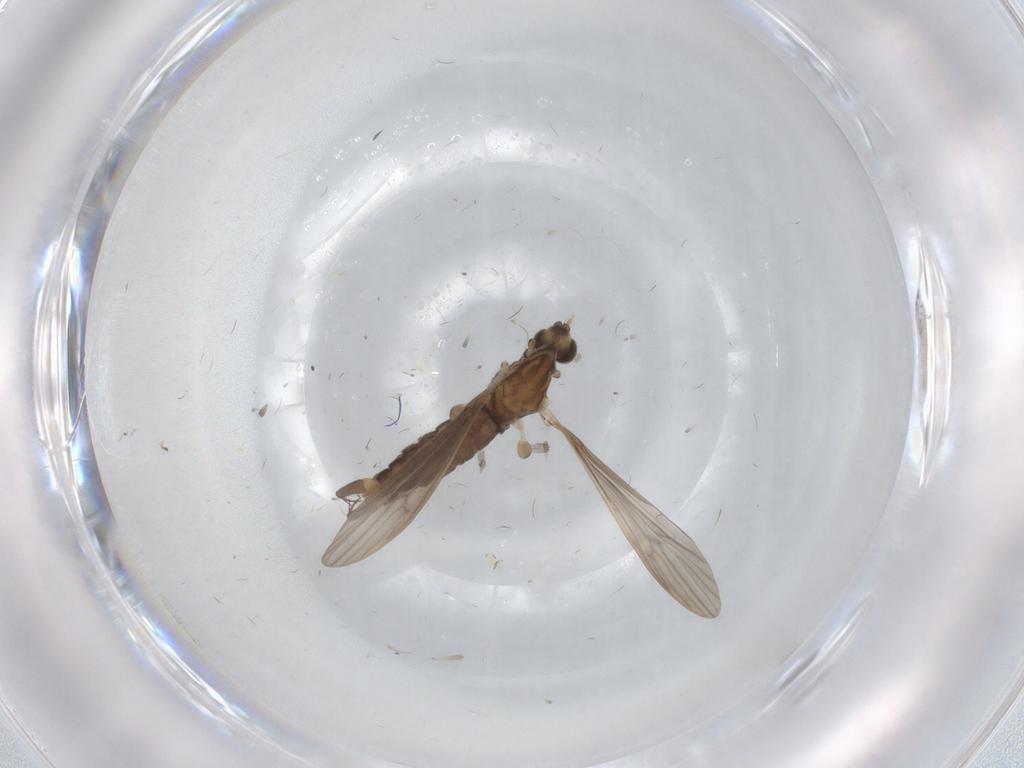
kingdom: Animalia
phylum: Arthropoda
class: Insecta
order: Diptera
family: Limoniidae
